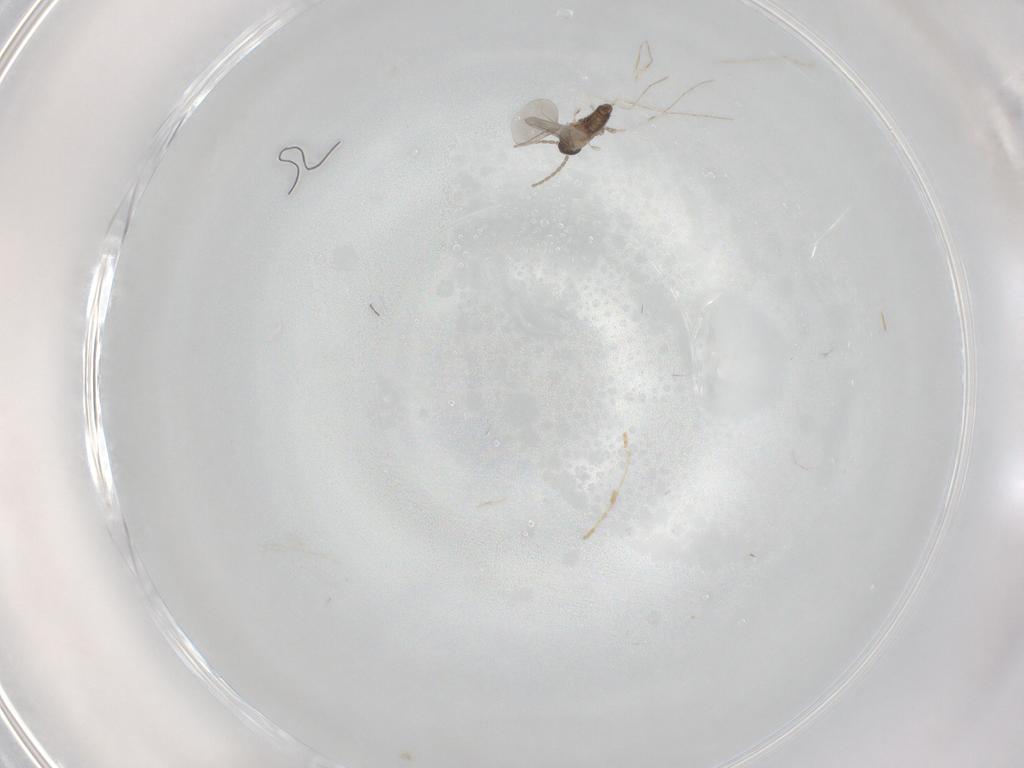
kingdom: Animalia
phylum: Arthropoda
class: Insecta
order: Diptera
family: Cecidomyiidae
